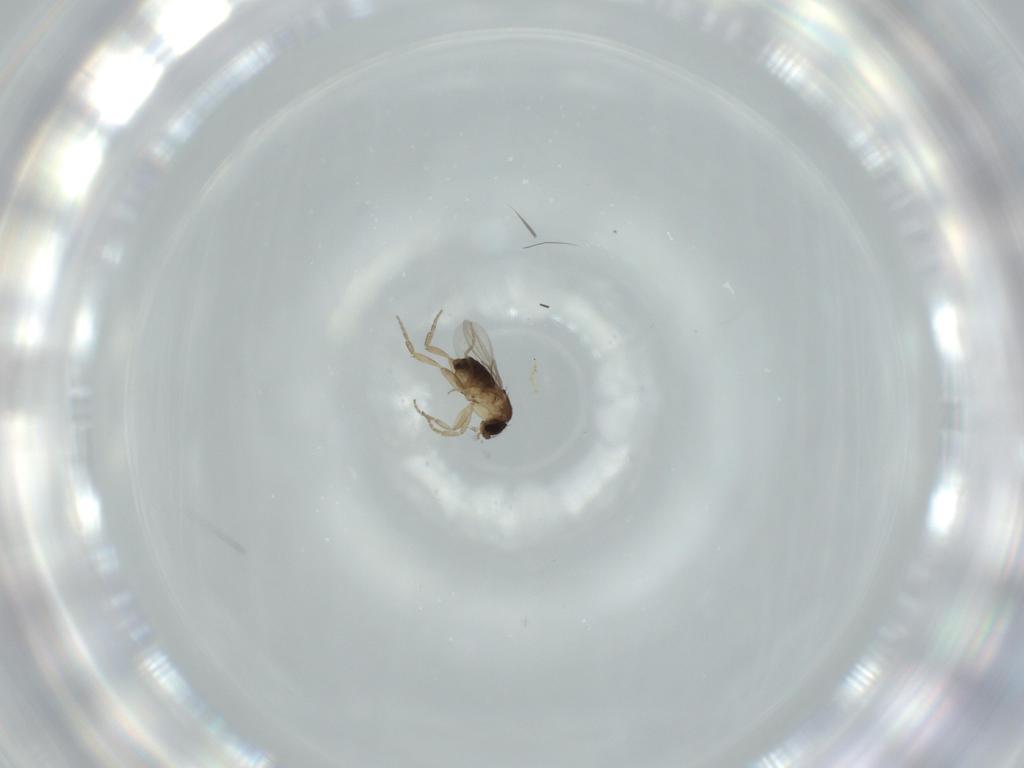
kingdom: Animalia
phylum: Arthropoda
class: Insecta
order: Diptera
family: Phoridae
